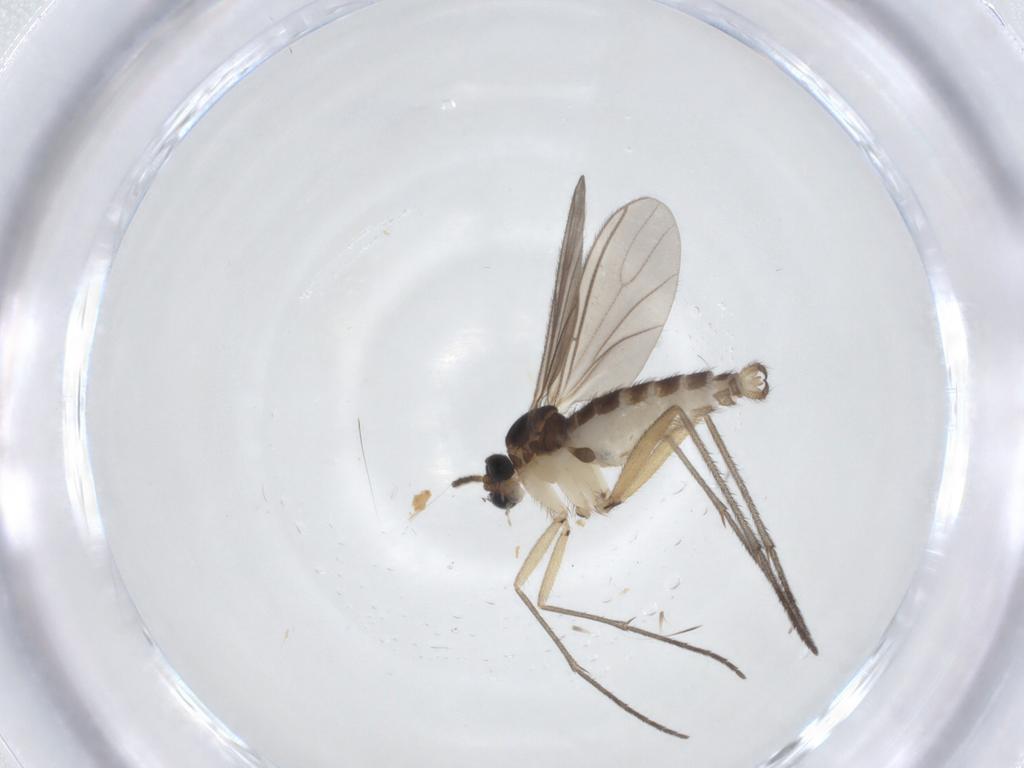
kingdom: Animalia
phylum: Arthropoda
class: Insecta
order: Diptera
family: Sciaridae
